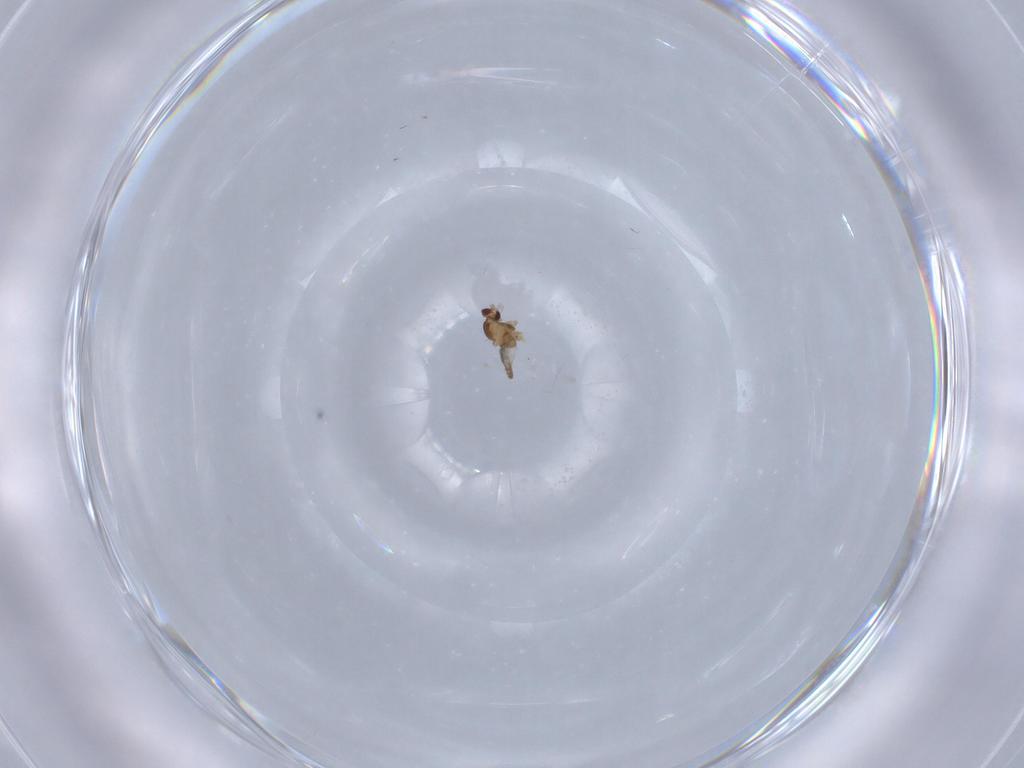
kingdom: Animalia
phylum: Arthropoda
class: Insecta
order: Diptera
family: Cecidomyiidae
